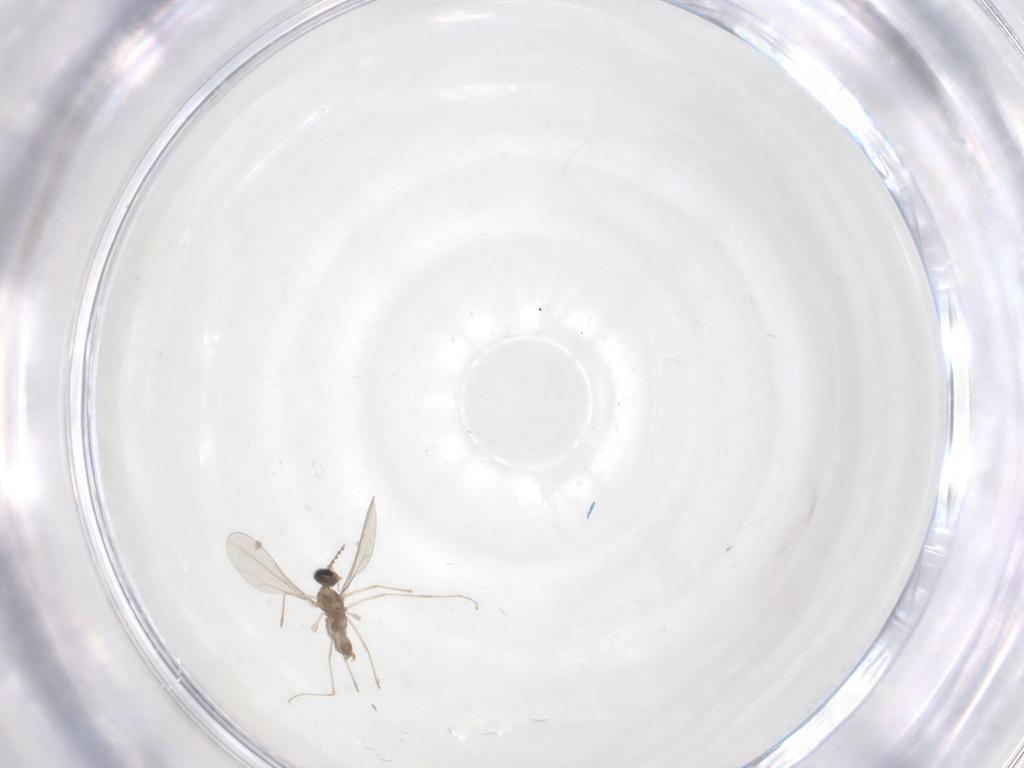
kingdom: Animalia
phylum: Arthropoda
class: Insecta
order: Diptera
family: Cecidomyiidae
